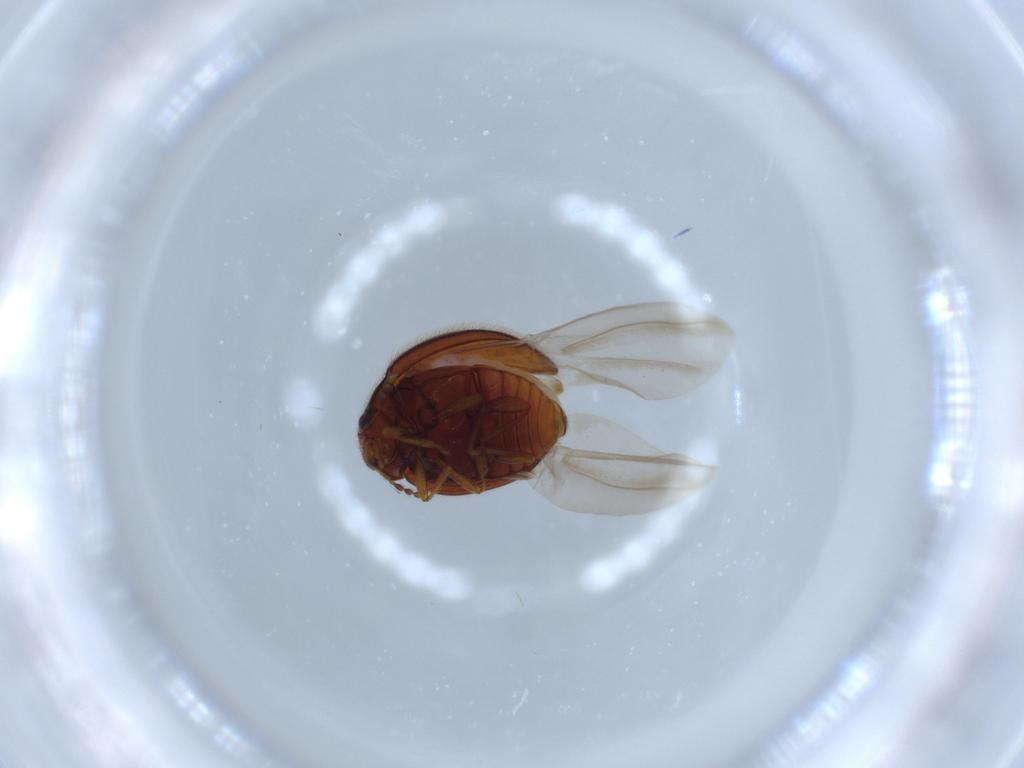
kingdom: Animalia
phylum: Arthropoda
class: Insecta
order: Coleoptera
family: Anamorphidae
